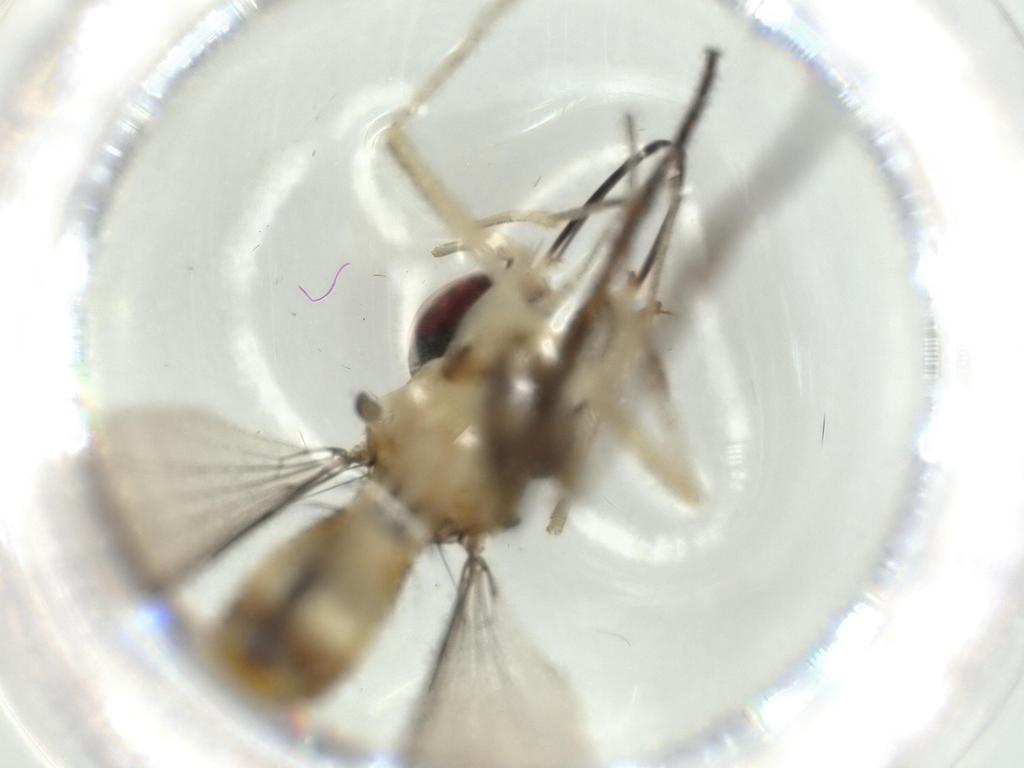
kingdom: Animalia
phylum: Arthropoda
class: Insecta
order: Diptera
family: Conopidae
